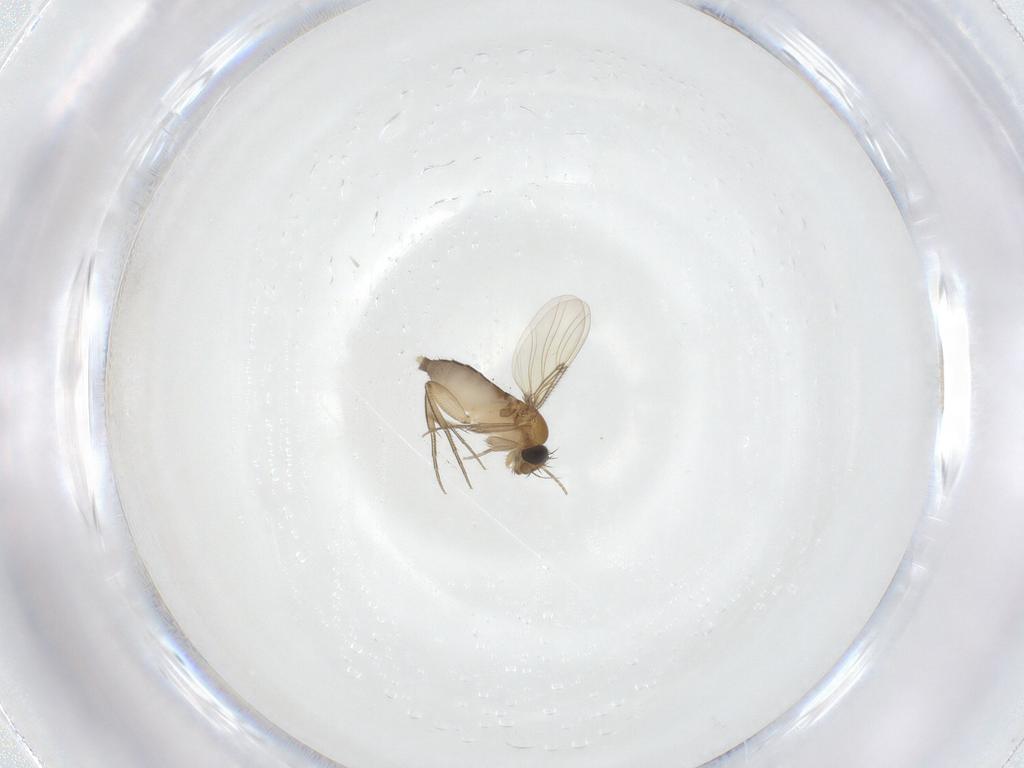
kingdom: Animalia
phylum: Arthropoda
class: Insecta
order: Diptera
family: Phoridae
